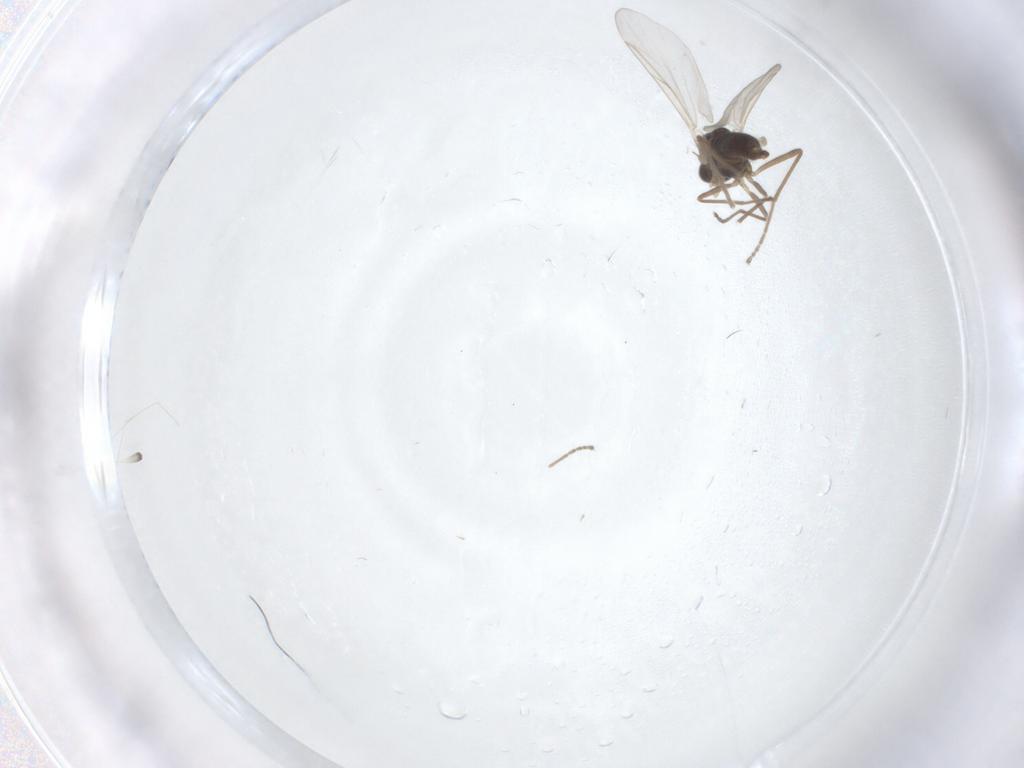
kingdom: Animalia
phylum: Arthropoda
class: Insecta
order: Diptera
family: Cecidomyiidae
